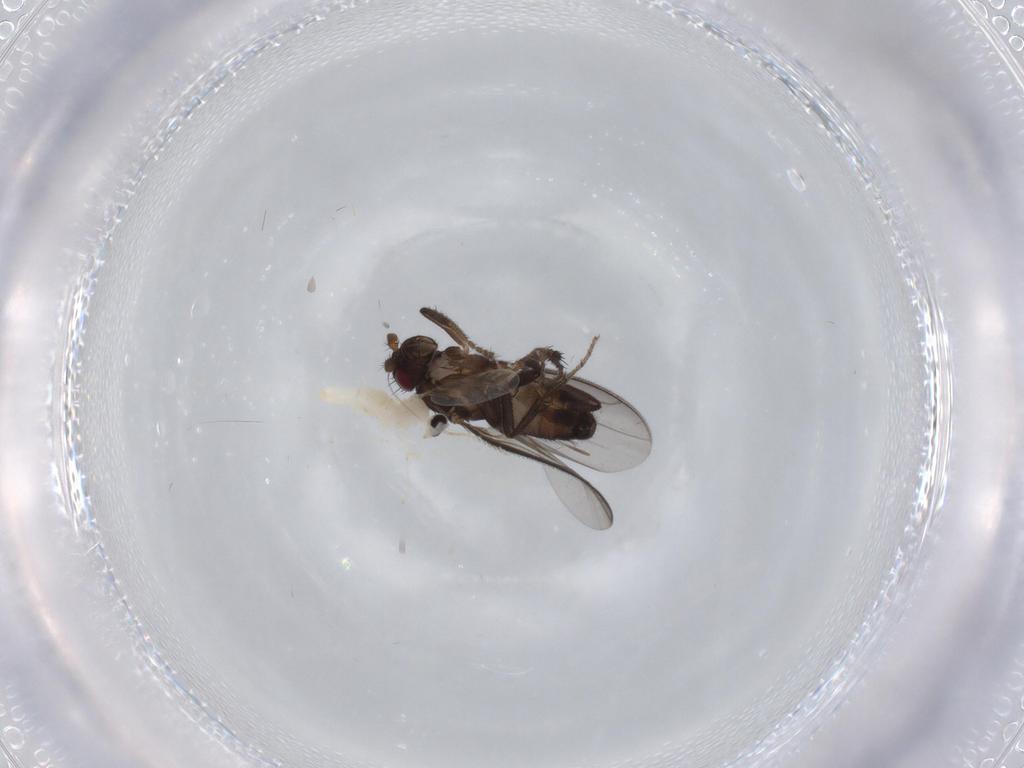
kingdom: Animalia
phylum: Arthropoda
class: Insecta
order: Diptera
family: Cecidomyiidae
